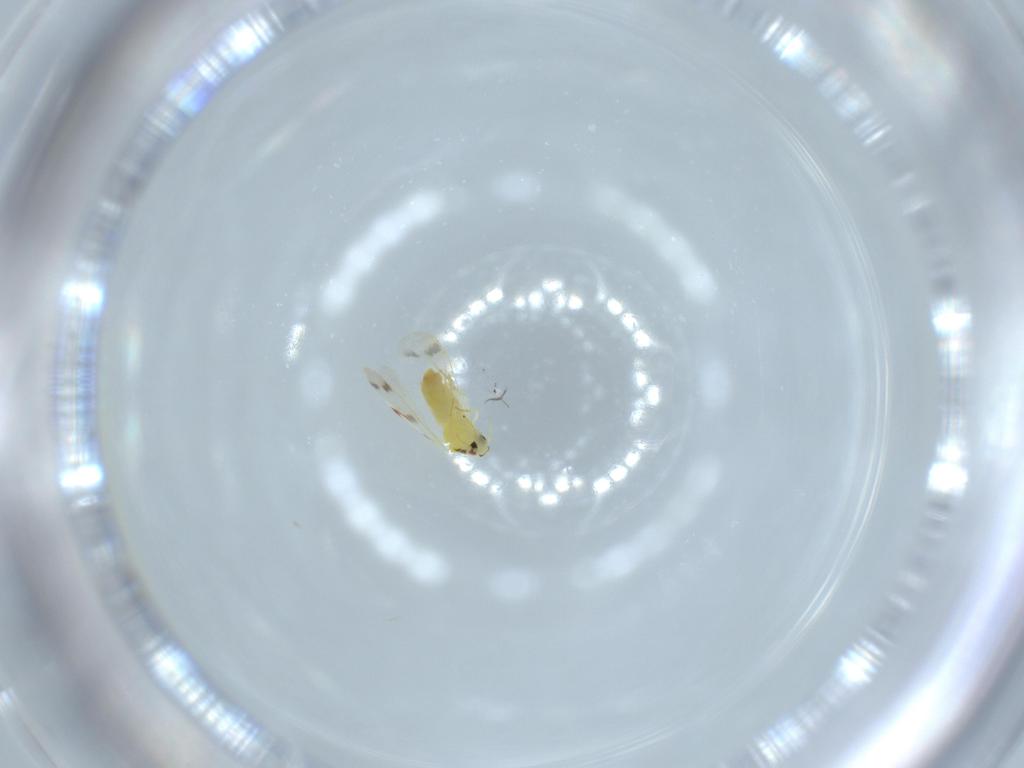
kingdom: Animalia
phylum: Arthropoda
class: Insecta
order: Hemiptera
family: Aleyrodidae
